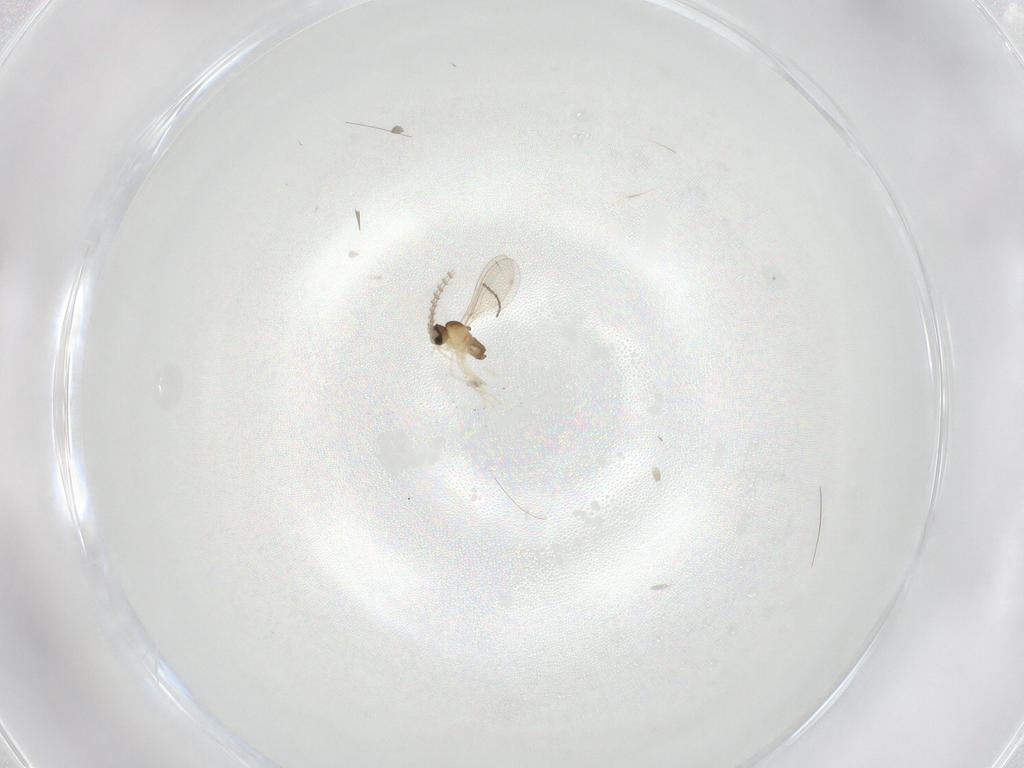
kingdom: Animalia
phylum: Arthropoda
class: Insecta
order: Diptera
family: Cecidomyiidae
